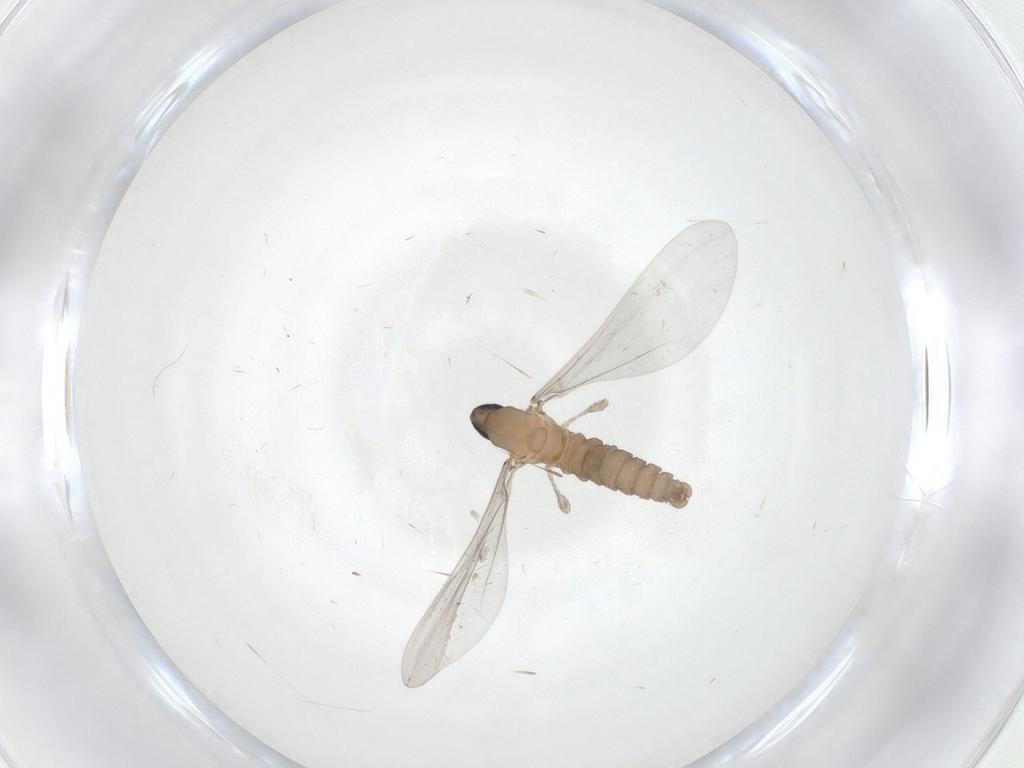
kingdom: Animalia
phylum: Arthropoda
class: Insecta
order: Diptera
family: Cecidomyiidae
